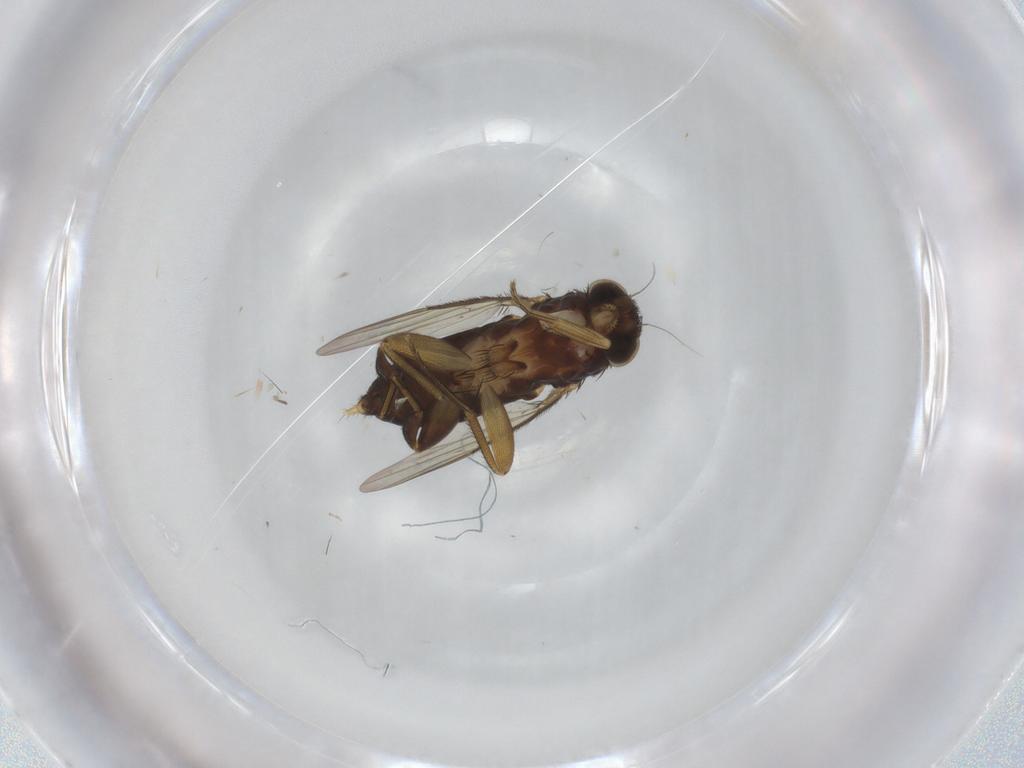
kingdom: Animalia
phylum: Arthropoda
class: Insecta
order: Diptera
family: Phoridae
